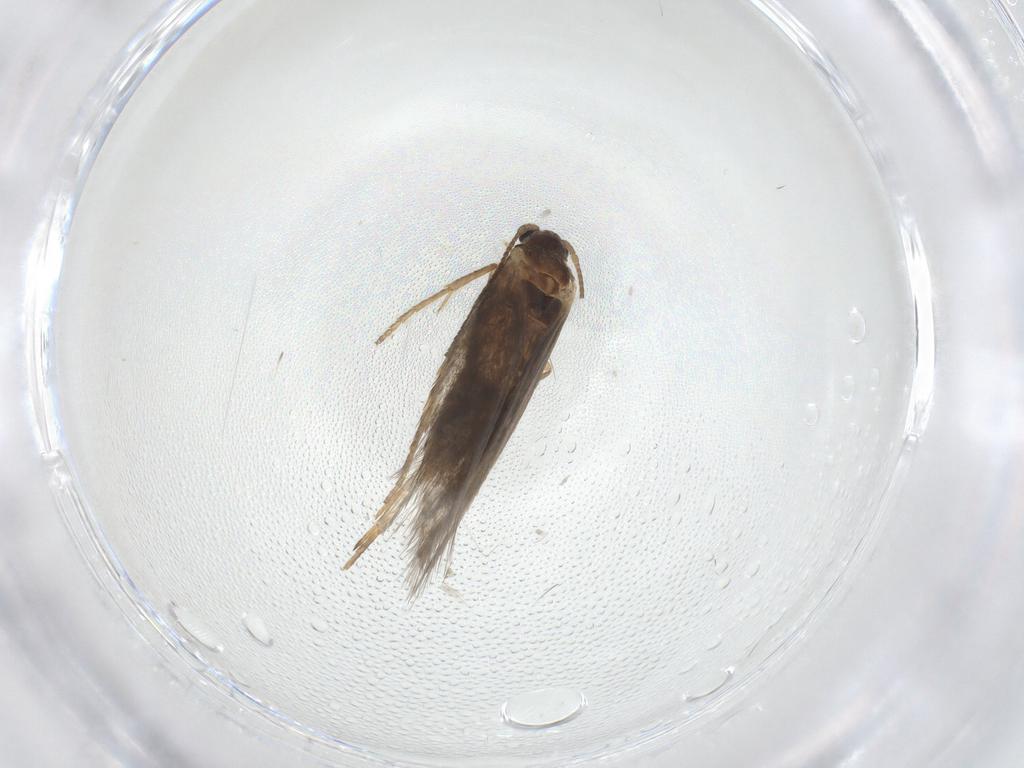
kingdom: Animalia
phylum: Arthropoda
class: Insecta
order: Lepidoptera
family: Nepticulidae
